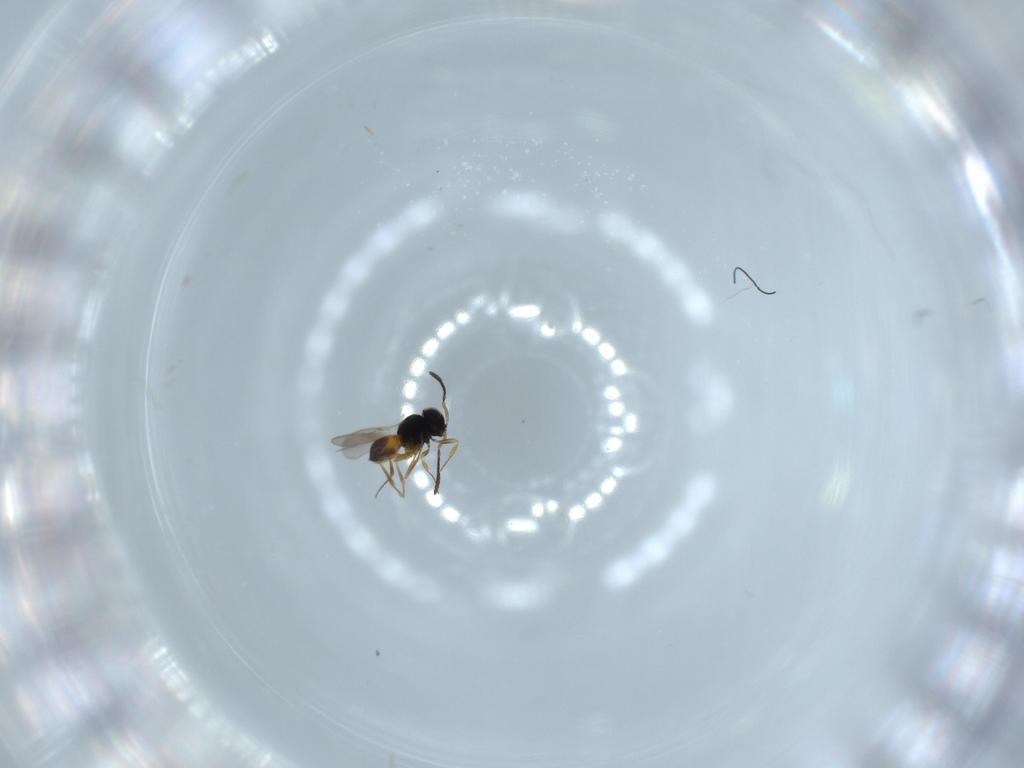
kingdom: Animalia
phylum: Arthropoda
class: Insecta
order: Hymenoptera
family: Scelionidae
